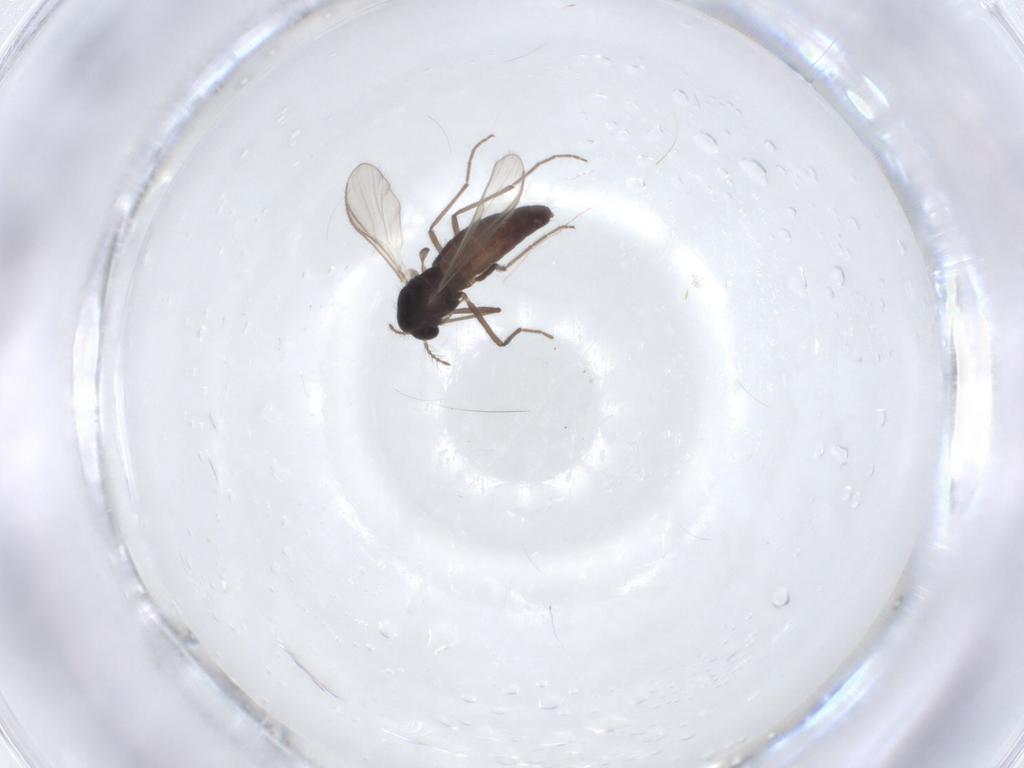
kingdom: Animalia
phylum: Arthropoda
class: Insecta
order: Diptera
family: Chironomidae
